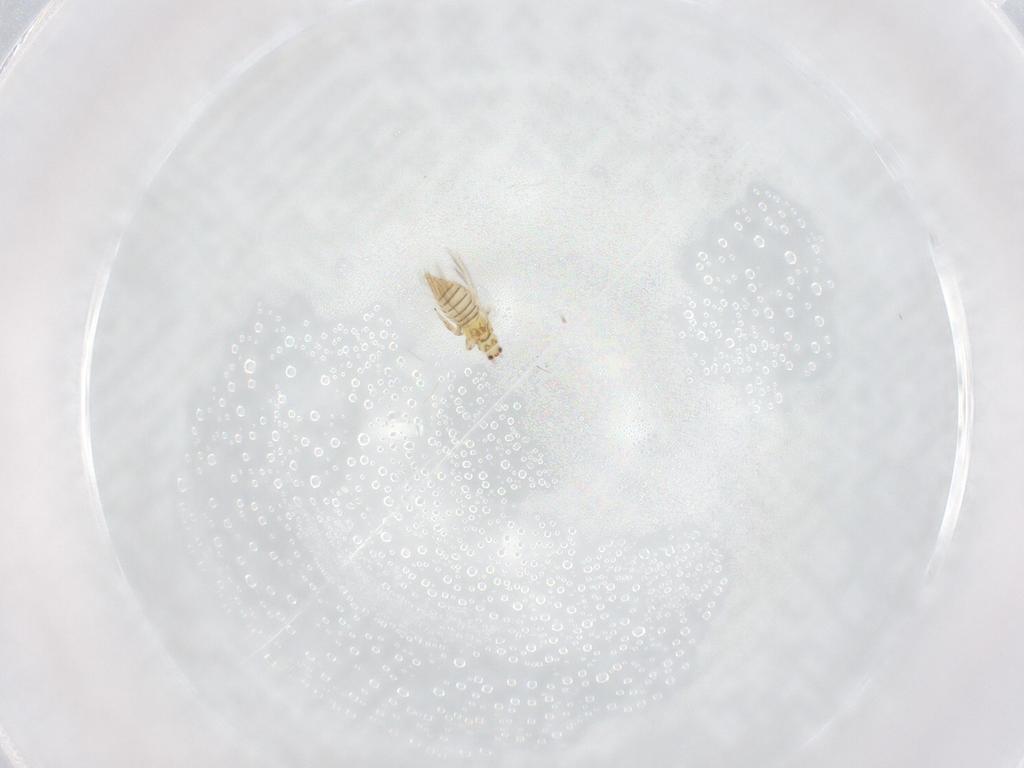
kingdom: Animalia
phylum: Arthropoda
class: Insecta
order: Thysanoptera
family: Thripidae
